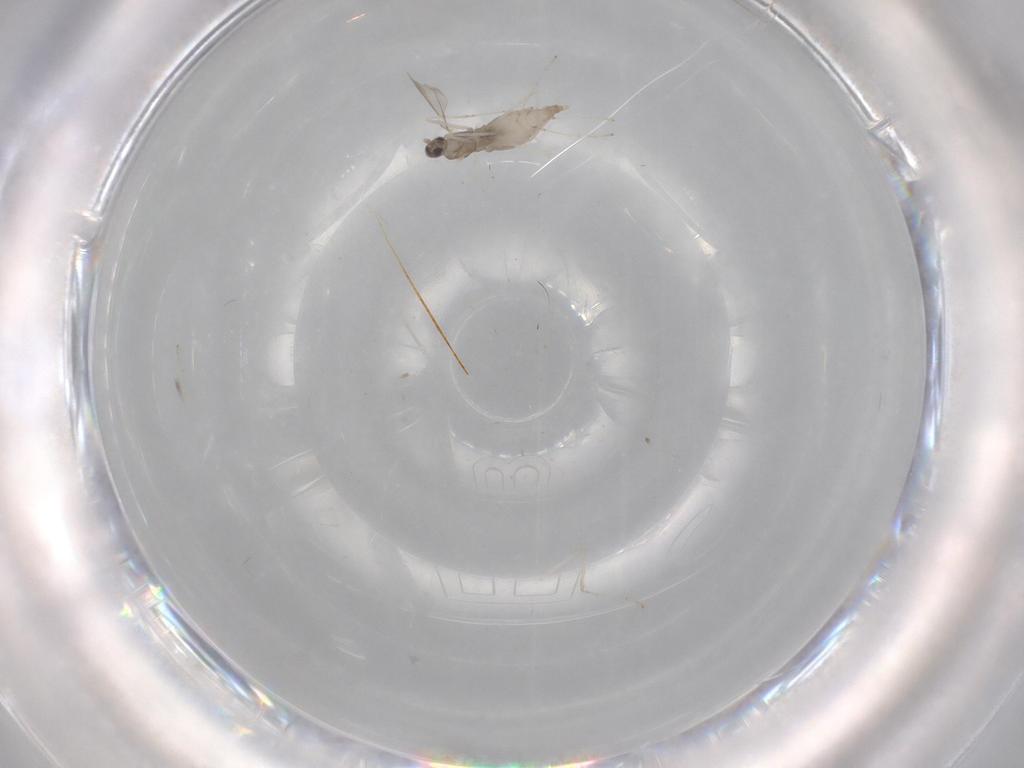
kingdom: Animalia
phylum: Arthropoda
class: Insecta
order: Diptera
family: Cecidomyiidae
